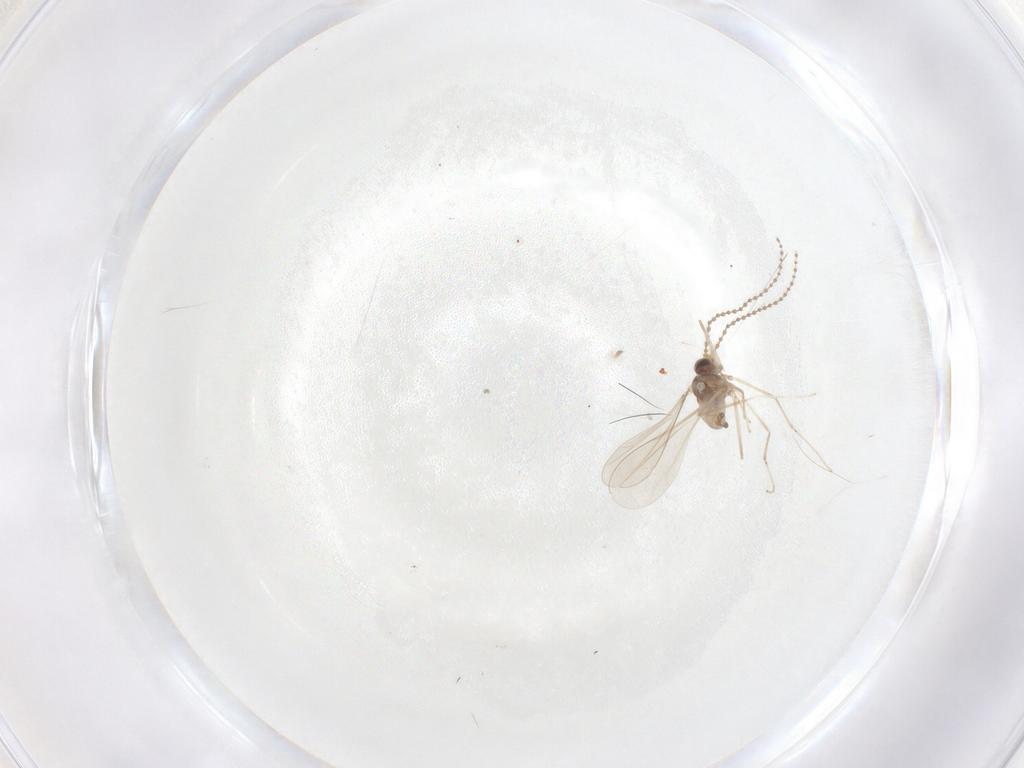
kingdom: Animalia
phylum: Arthropoda
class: Insecta
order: Diptera
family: Cecidomyiidae
